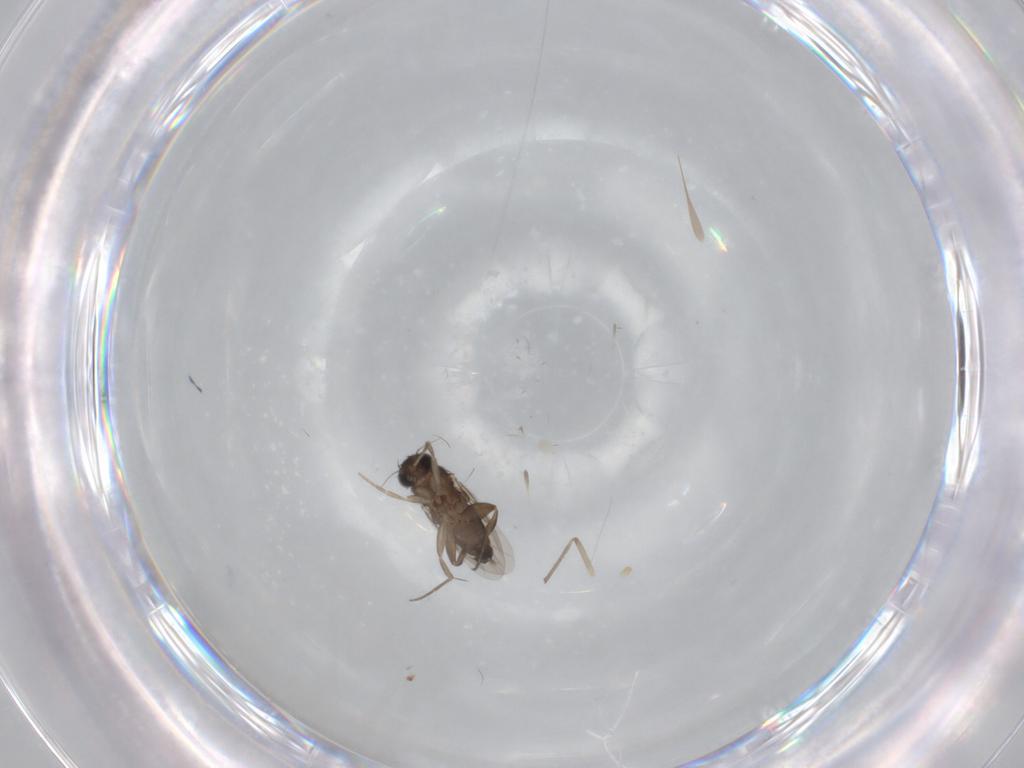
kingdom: Animalia
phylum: Arthropoda
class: Insecta
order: Diptera
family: Phoridae
